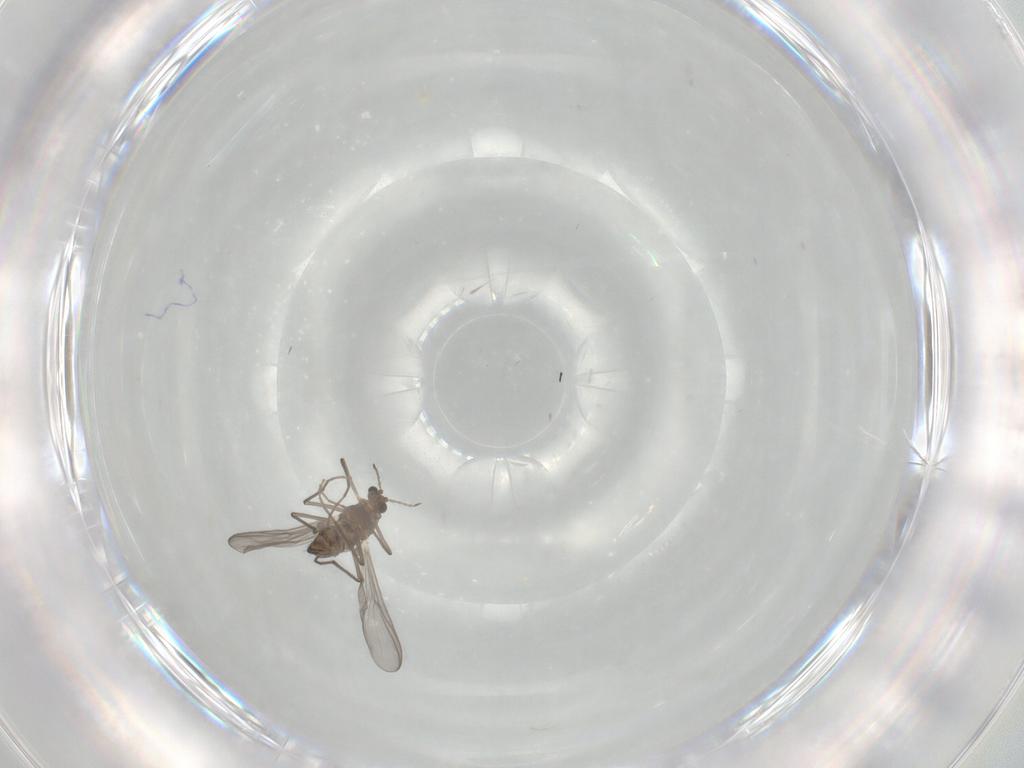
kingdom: Animalia
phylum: Arthropoda
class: Insecta
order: Diptera
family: Chironomidae
